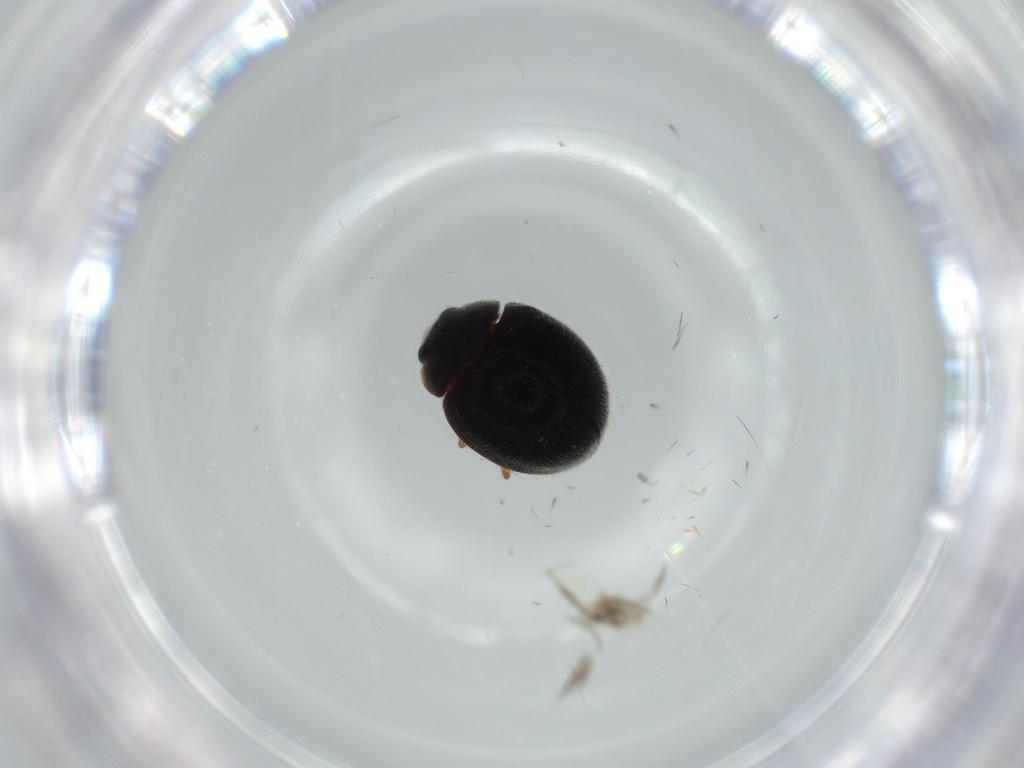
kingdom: Animalia
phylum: Arthropoda
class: Insecta
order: Coleoptera
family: Coccinellidae
